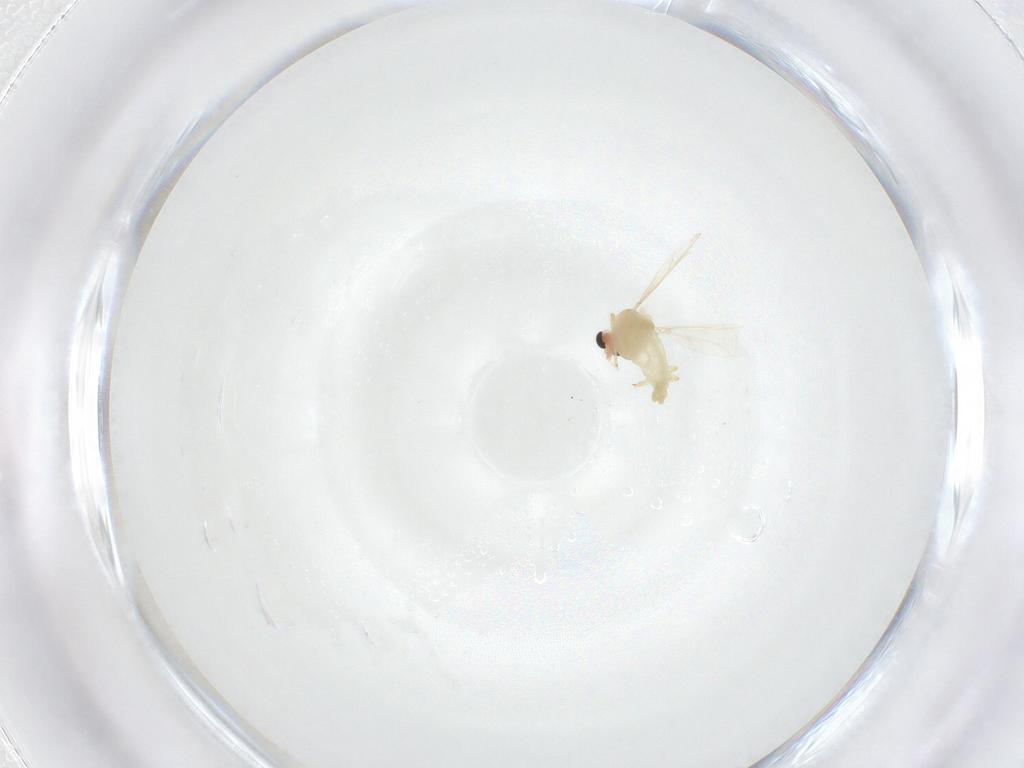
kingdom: Animalia
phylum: Arthropoda
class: Insecta
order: Diptera
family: Chironomidae
